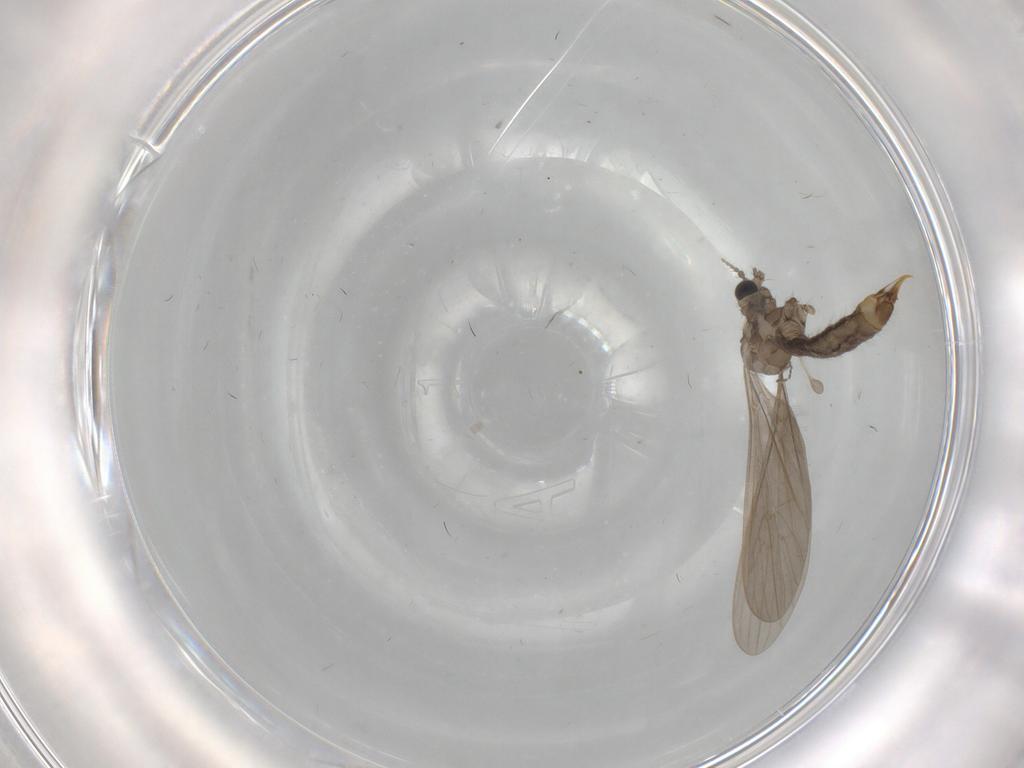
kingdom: Animalia
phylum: Arthropoda
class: Insecta
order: Diptera
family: Limoniidae
